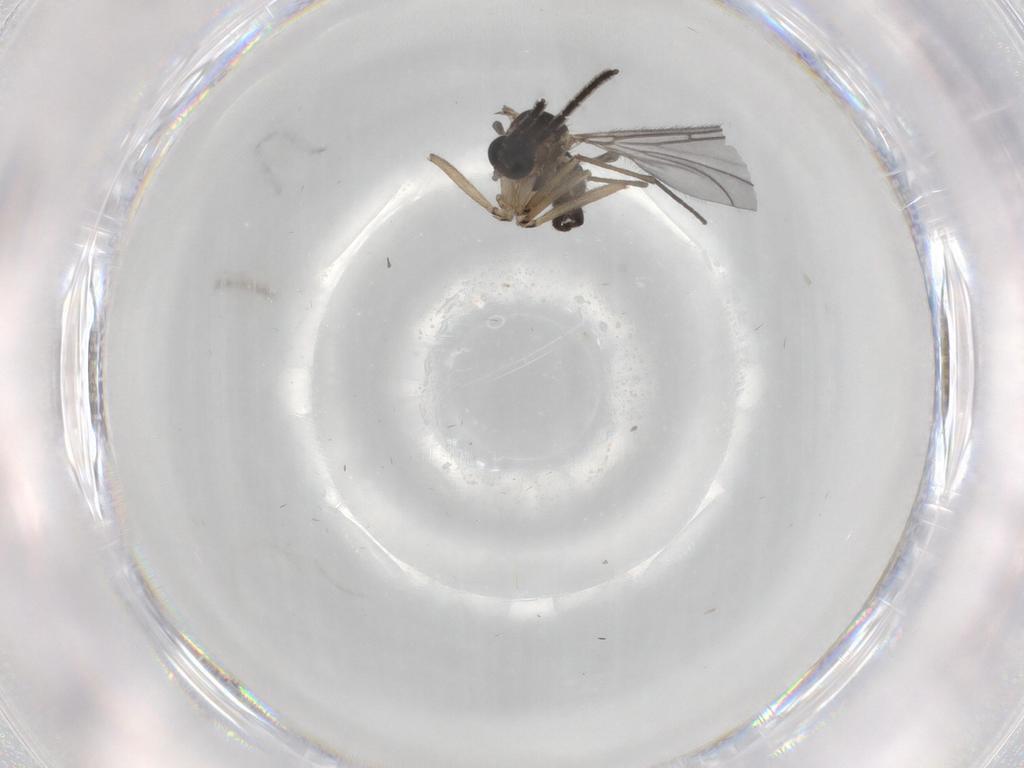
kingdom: Animalia
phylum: Arthropoda
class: Insecta
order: Diptera
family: Sciaridae
